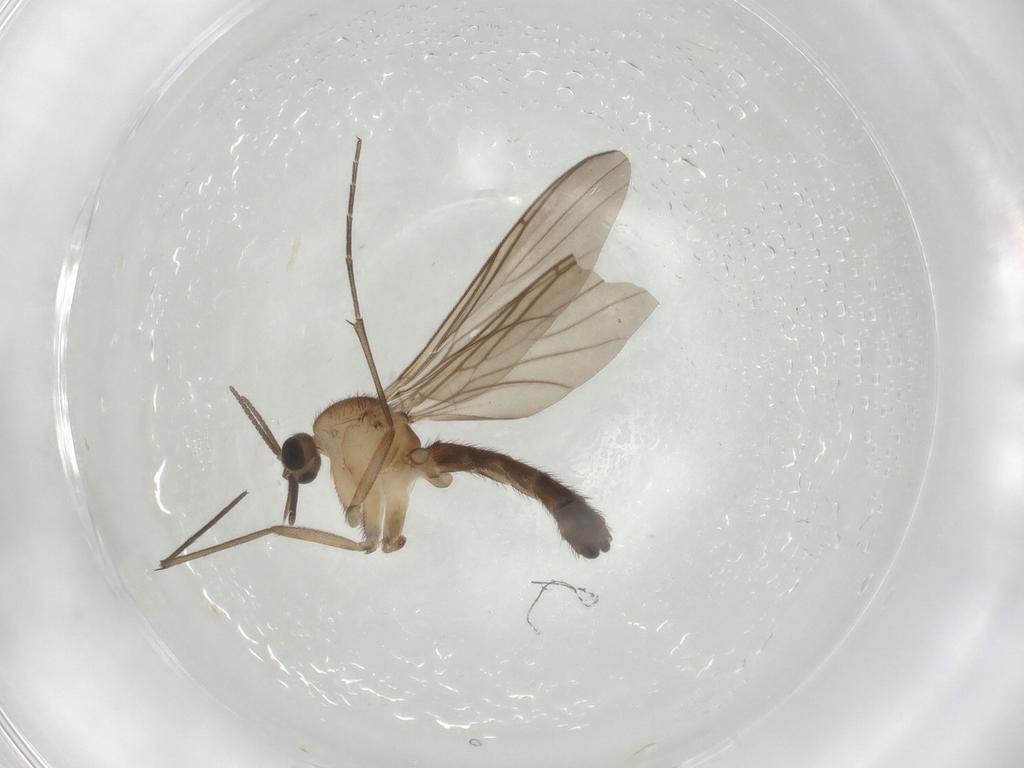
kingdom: Animalia
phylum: Arthropoda
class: Insecta
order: Diptera
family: Keroplatidae
